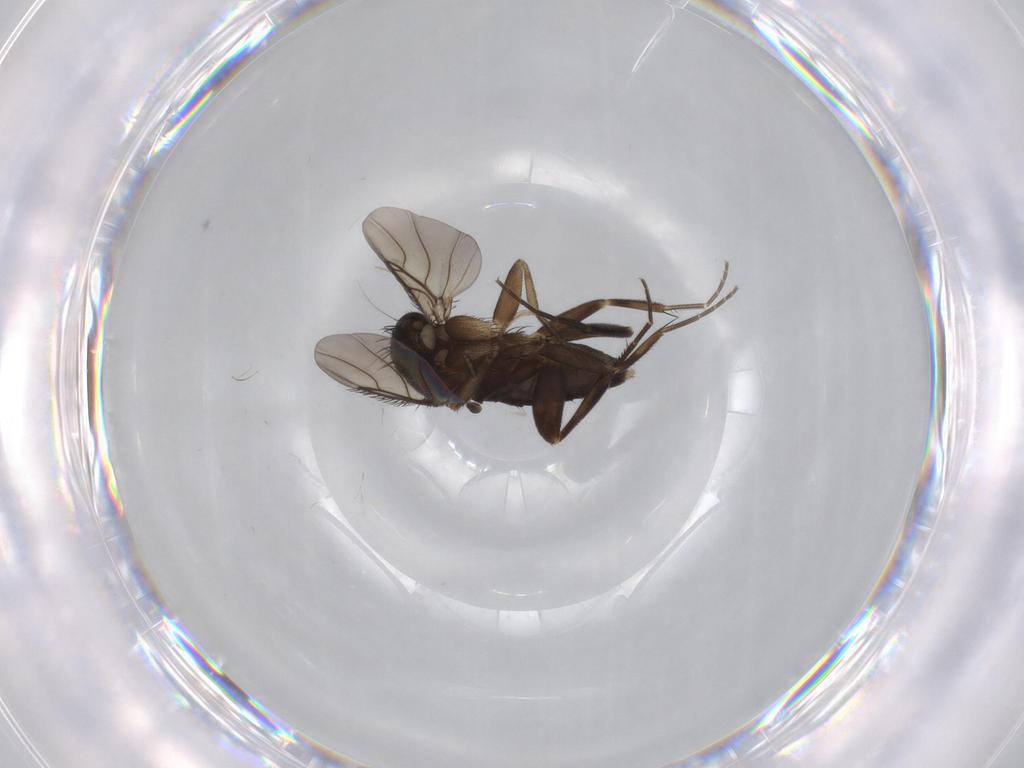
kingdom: Animalia
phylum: Arthropoda
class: Insecta
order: Diptera
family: Phoridae
